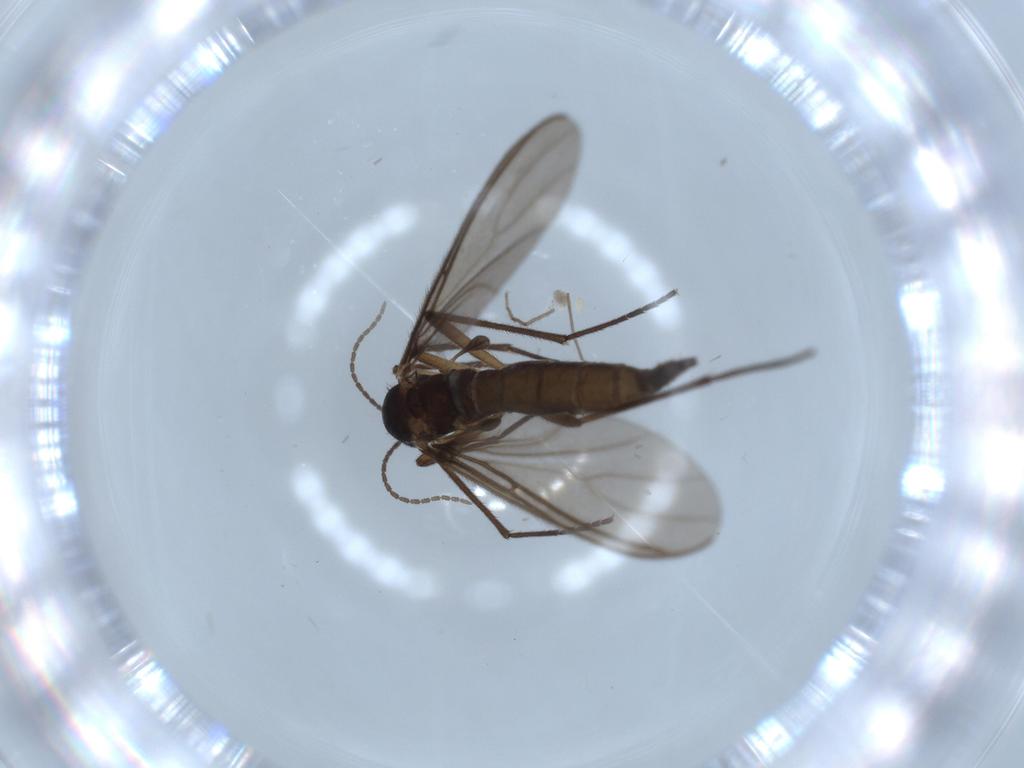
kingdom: Animalia
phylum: Arthropoda
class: Insecta
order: Diptera
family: Chironomidae
